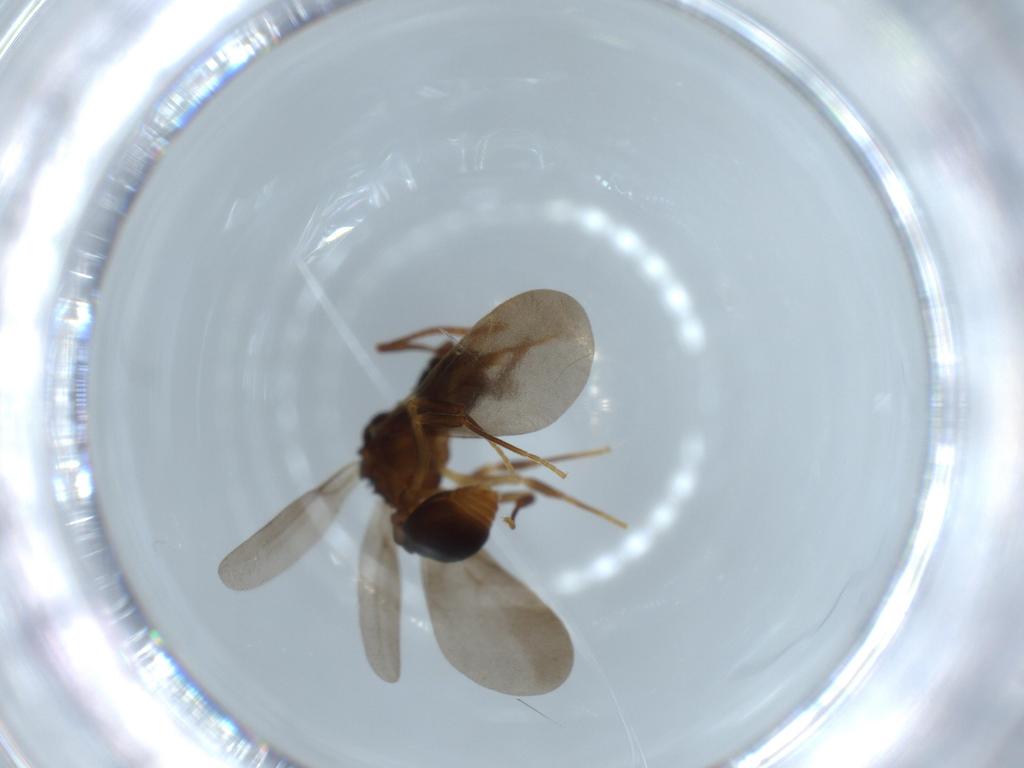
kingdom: Animalia
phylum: Arthropoda
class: Insecta
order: Hymenoptera
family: Formicidae
